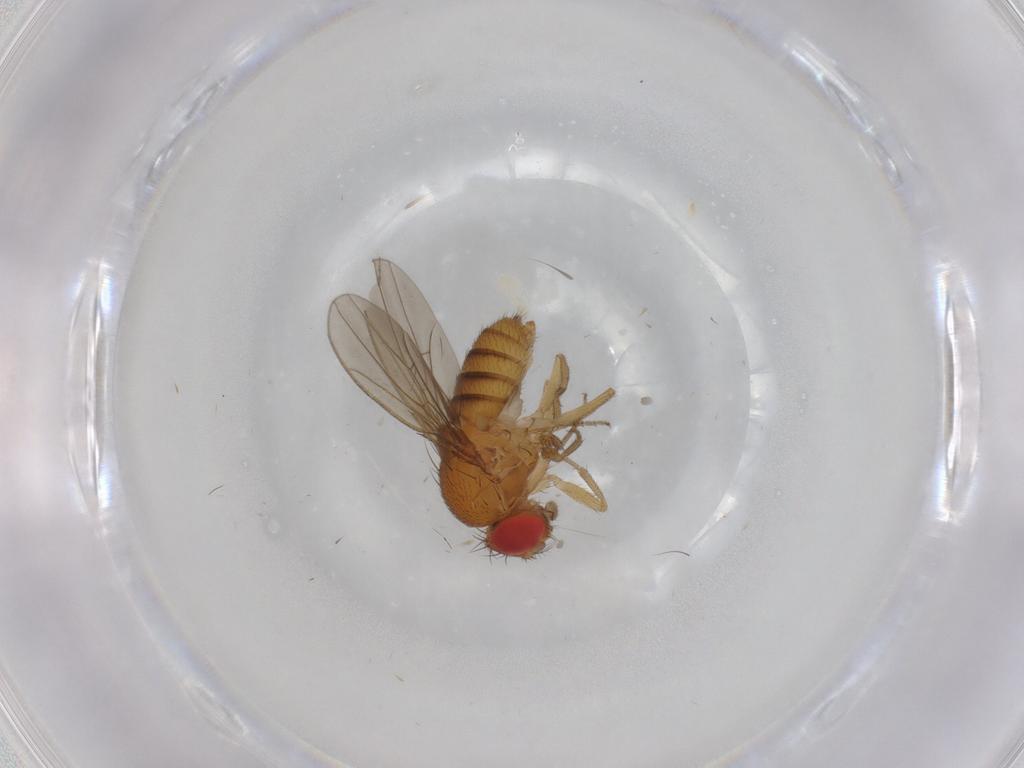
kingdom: Animalia
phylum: Arthropoda
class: Insecta
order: Diptera
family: Drosophilidae
